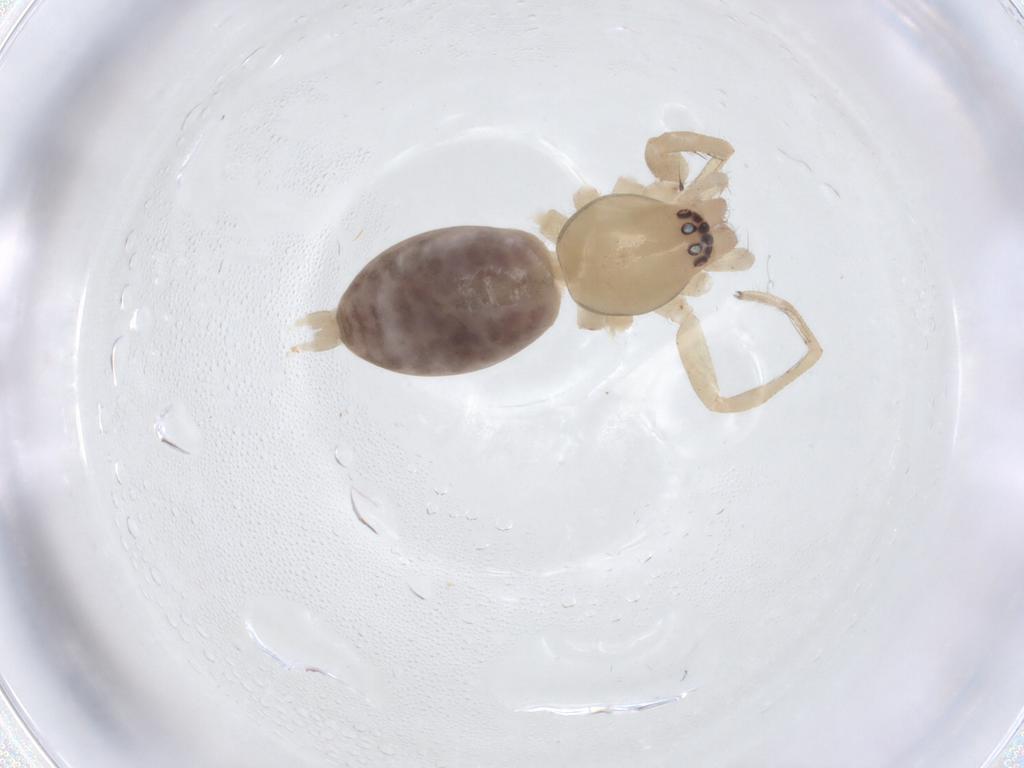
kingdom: Animalia
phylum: Arthropoda
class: Arachnida
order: Araneae
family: Clubionidae
